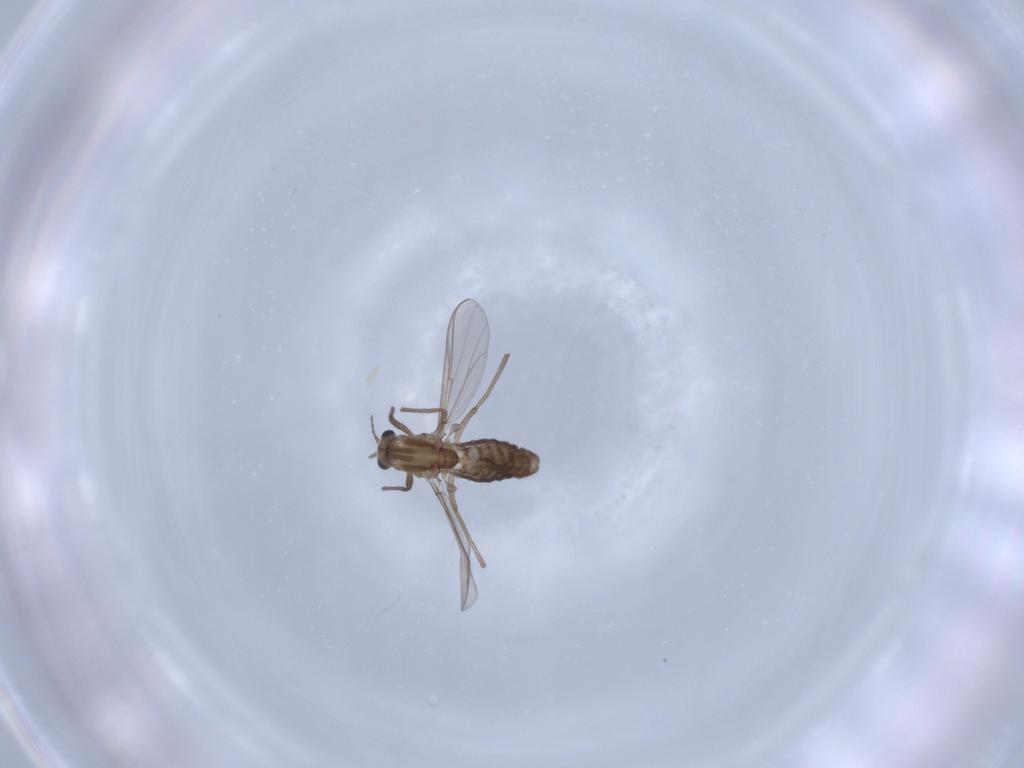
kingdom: Animalia
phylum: Arthropoda
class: Insecta
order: Diptera
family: Chironomidae
